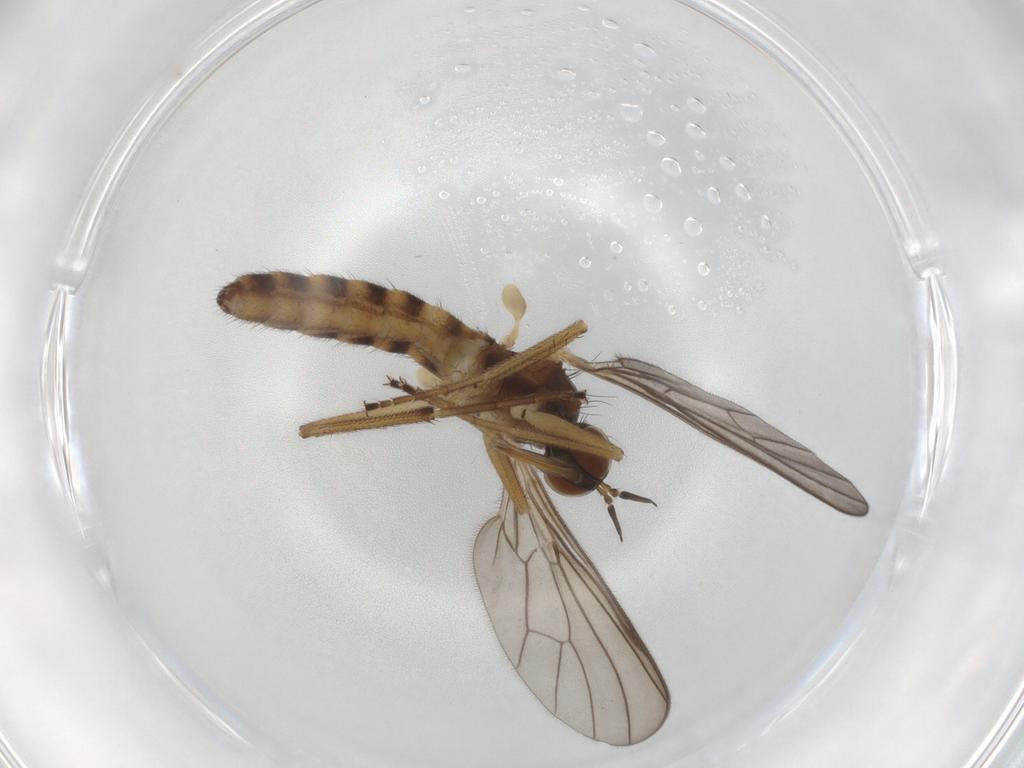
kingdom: Animalia
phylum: Arthropoda
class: Insecta
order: Diptera
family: Empididae
